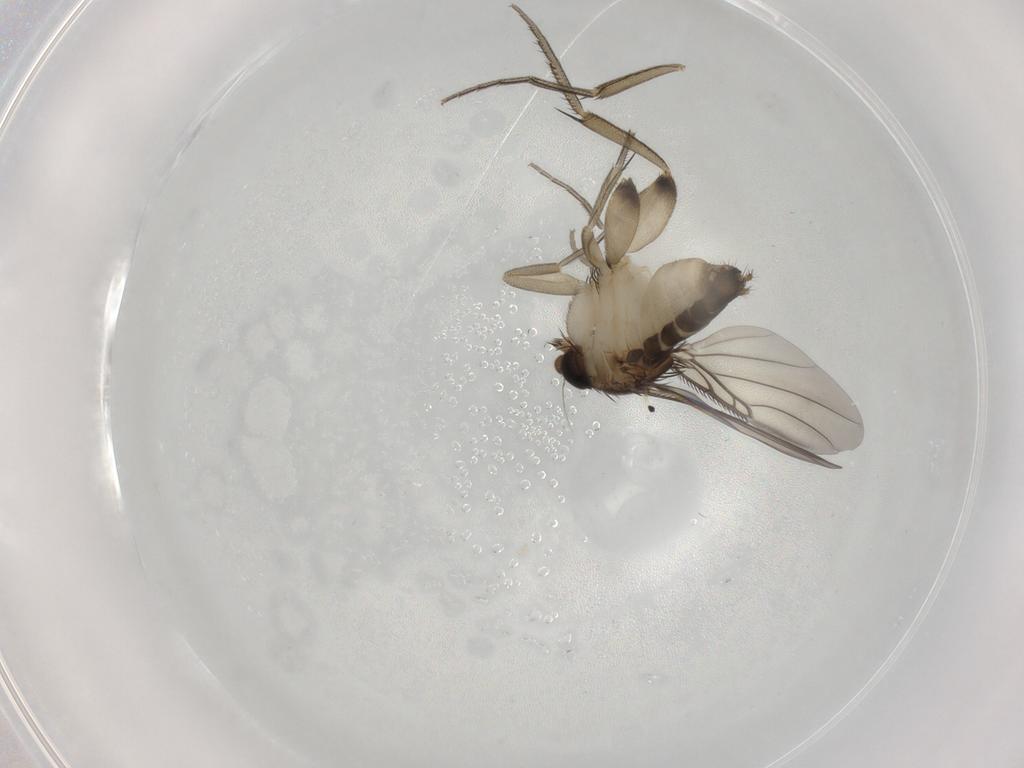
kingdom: Animalia
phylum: Arthropoda
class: Insecta
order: Diptera
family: Phoridae
